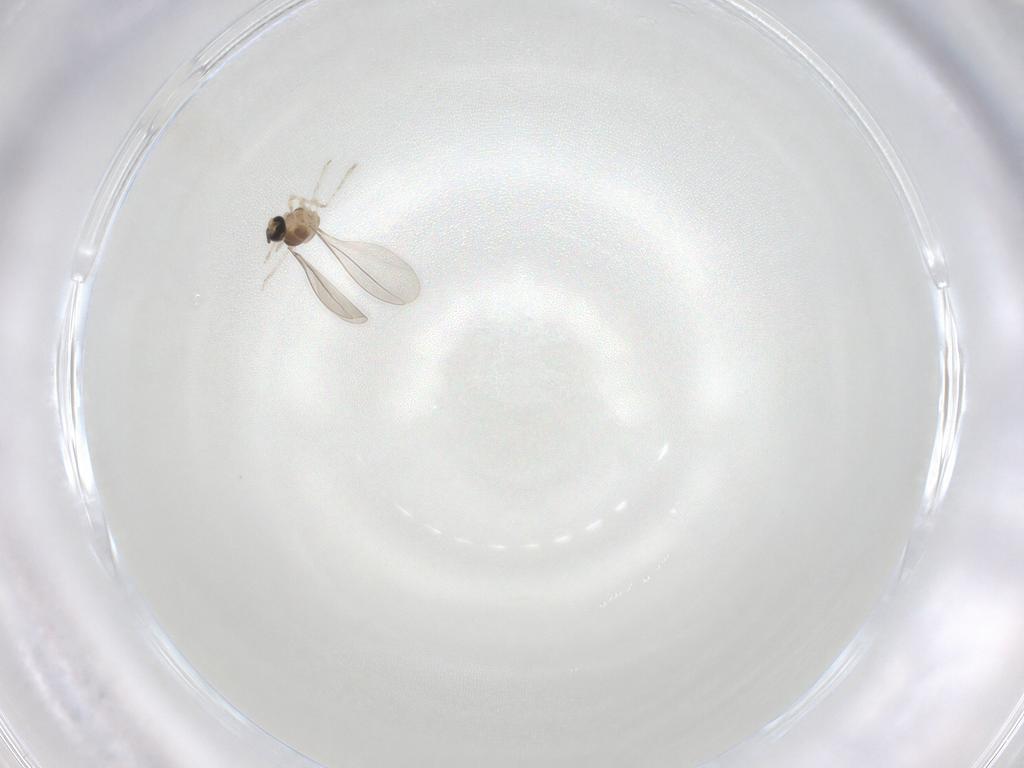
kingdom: Animalia
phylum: Arthropoda
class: Insecta
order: Diptera
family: Cecidomyiidae
